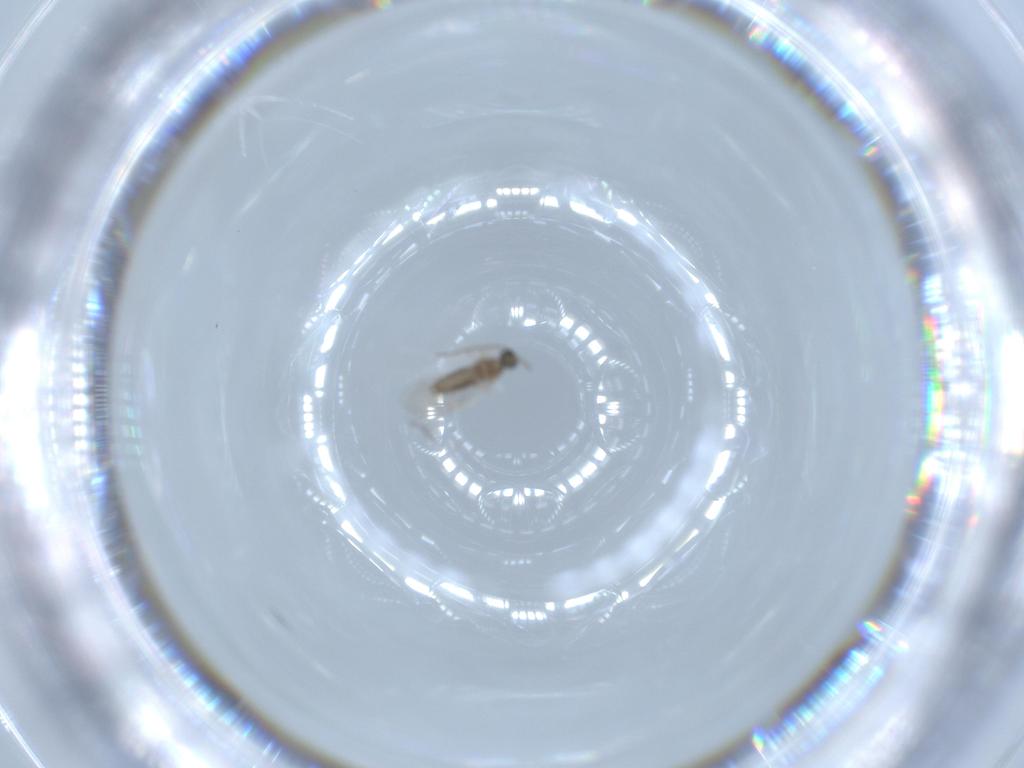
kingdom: Animalia
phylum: Arthropoda
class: Insecta
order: Diptera
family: Cecidomyiidae
